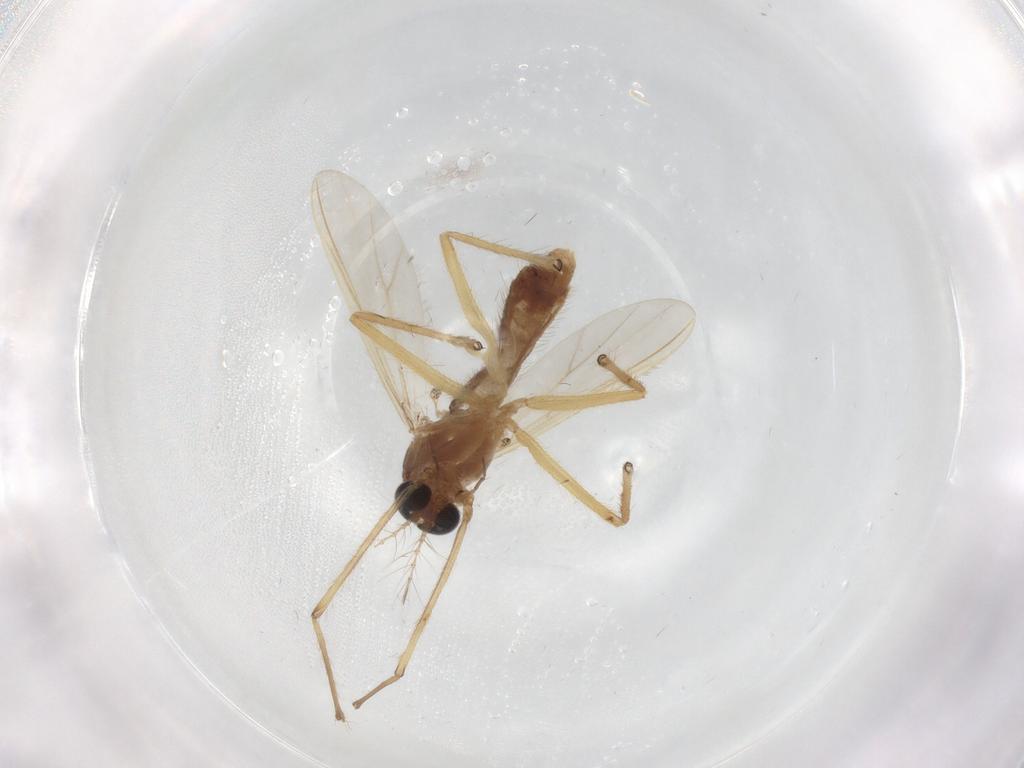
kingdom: Animalia
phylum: Arthropoda
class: Insecta
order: Diptera
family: Chironomidae
